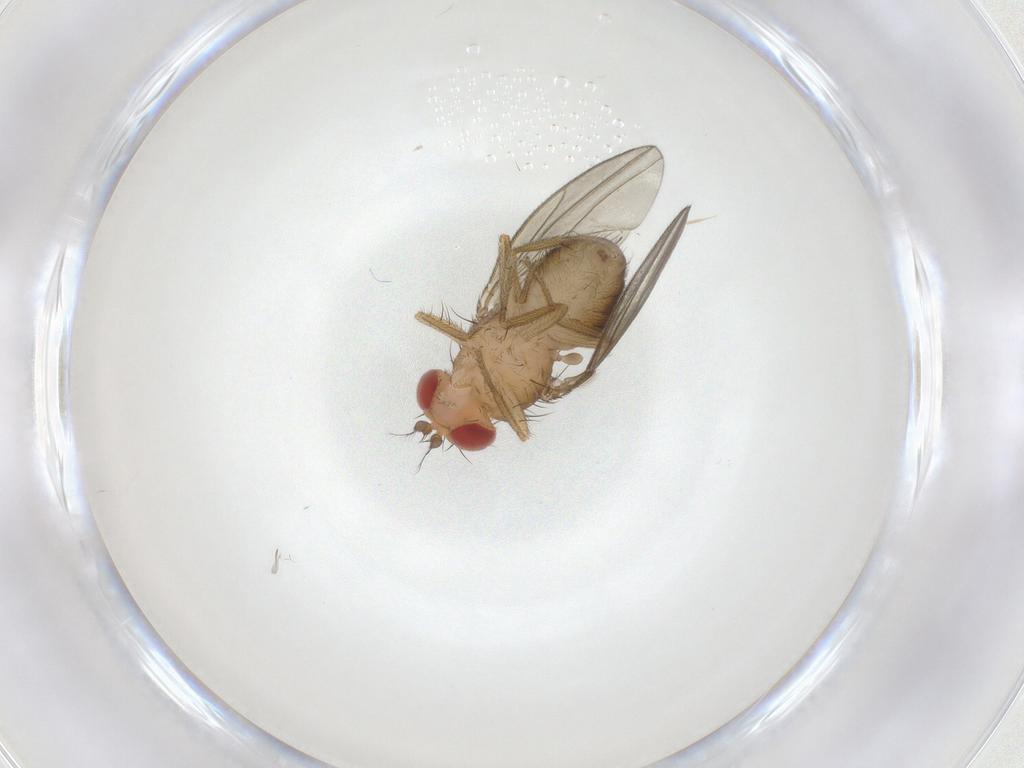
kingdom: Animalia
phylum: Arthropoda
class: Insecta
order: Diptera
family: Drosophilidae
